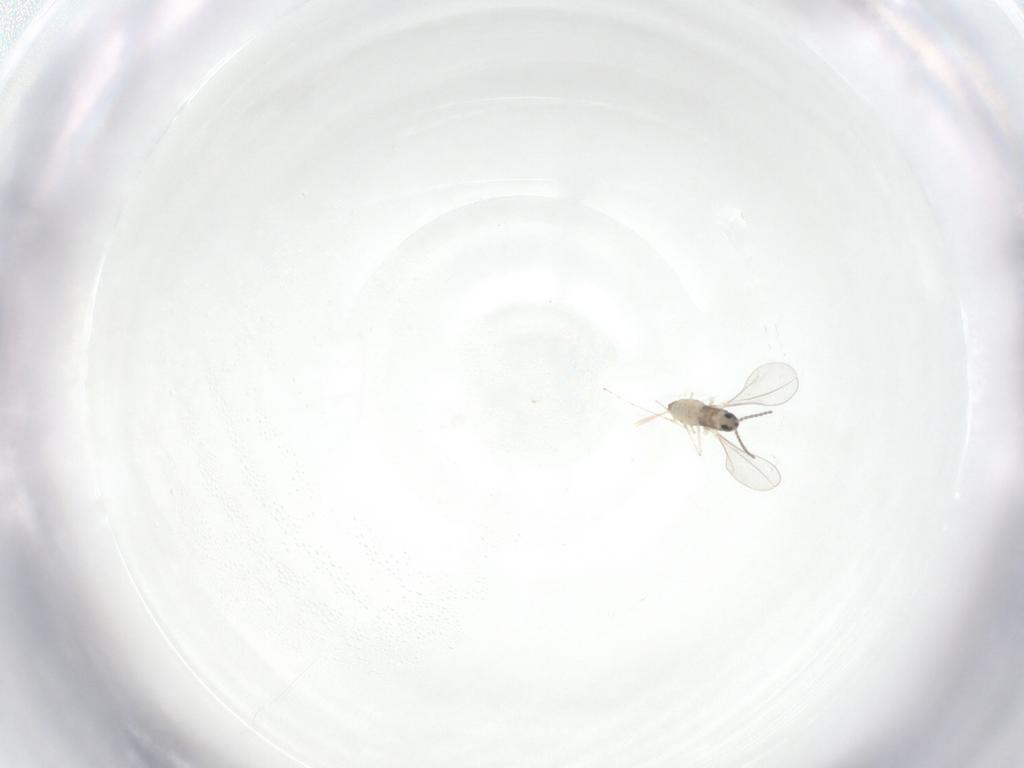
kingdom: Animalia
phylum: Arthropoda
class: Insecta
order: Diptera
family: Cecidomyiidae
